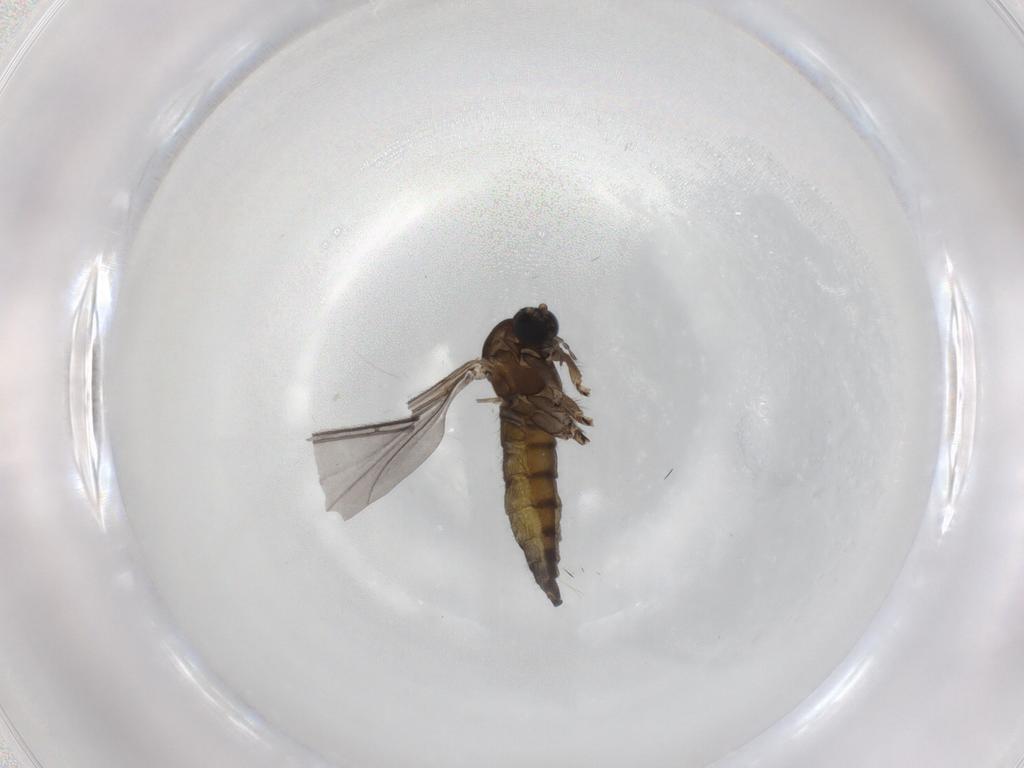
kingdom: Animalia
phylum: Arthropoda
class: Insecta
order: Diptera
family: Sciaridae
